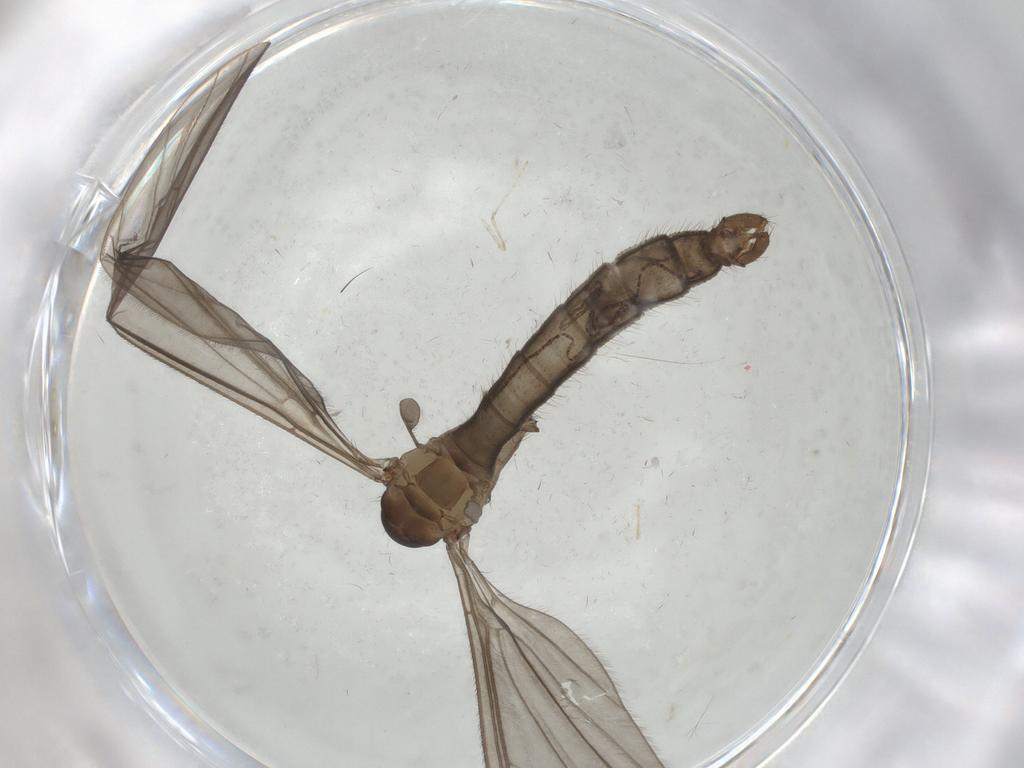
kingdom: Animalia
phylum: Arthropoda
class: Insecta
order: Diptera
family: Limoniidae
